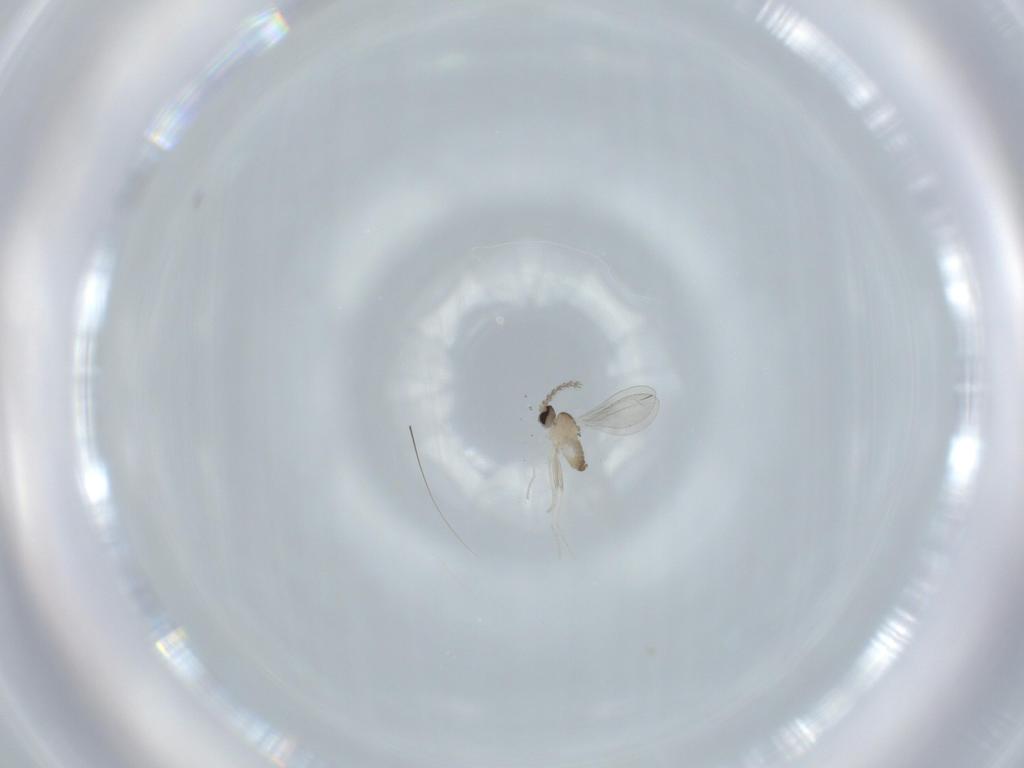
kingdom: Animalia
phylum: Arthropoda
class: Insecta
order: Diptera
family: Cecidomyiidae
